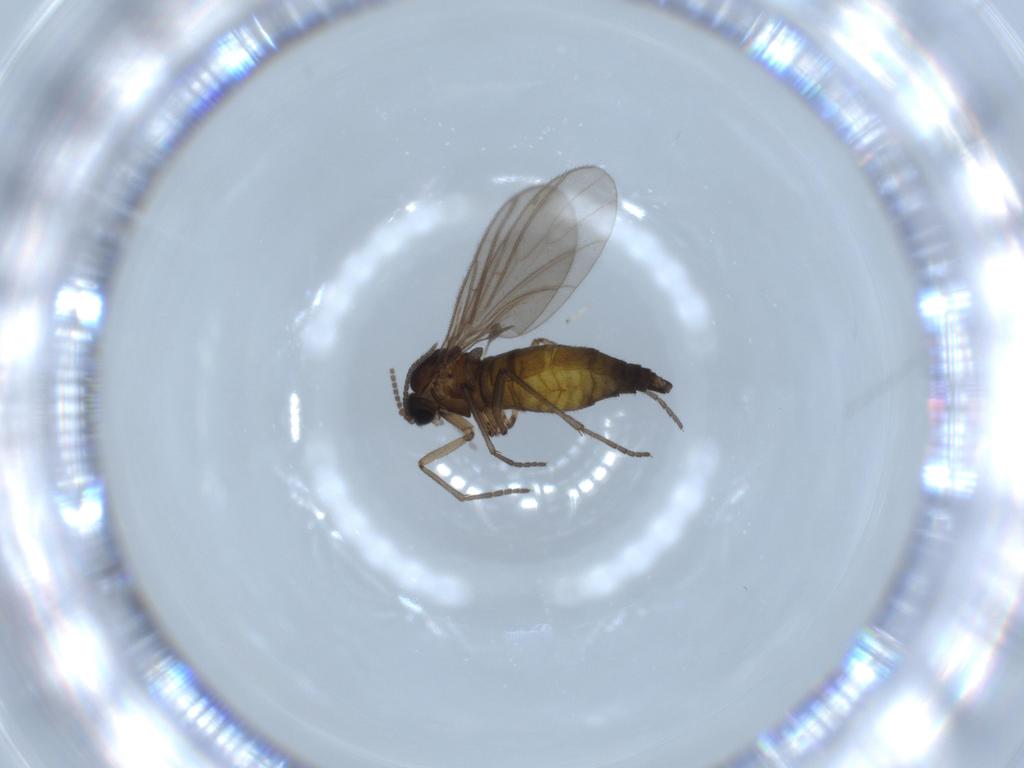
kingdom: Animalia
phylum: Arthropoda
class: Insecta
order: Diptera
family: Sciaridae
